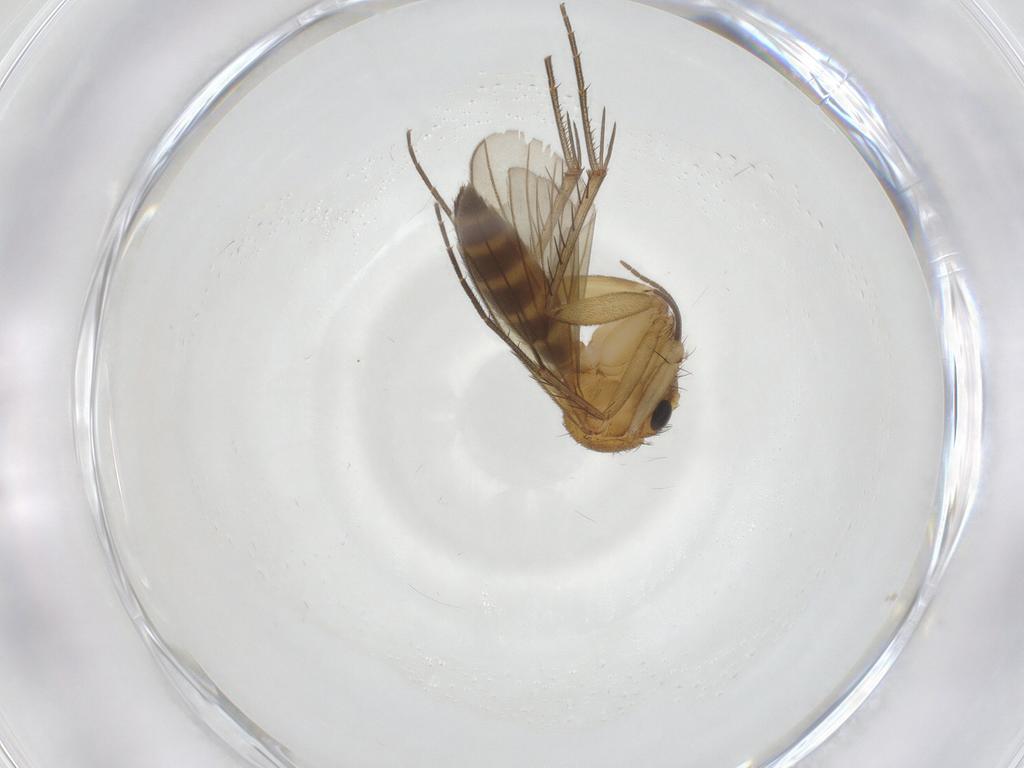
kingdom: Animalia
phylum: Arthropoda
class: Insecta
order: Diptera
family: Mycetophilidae
